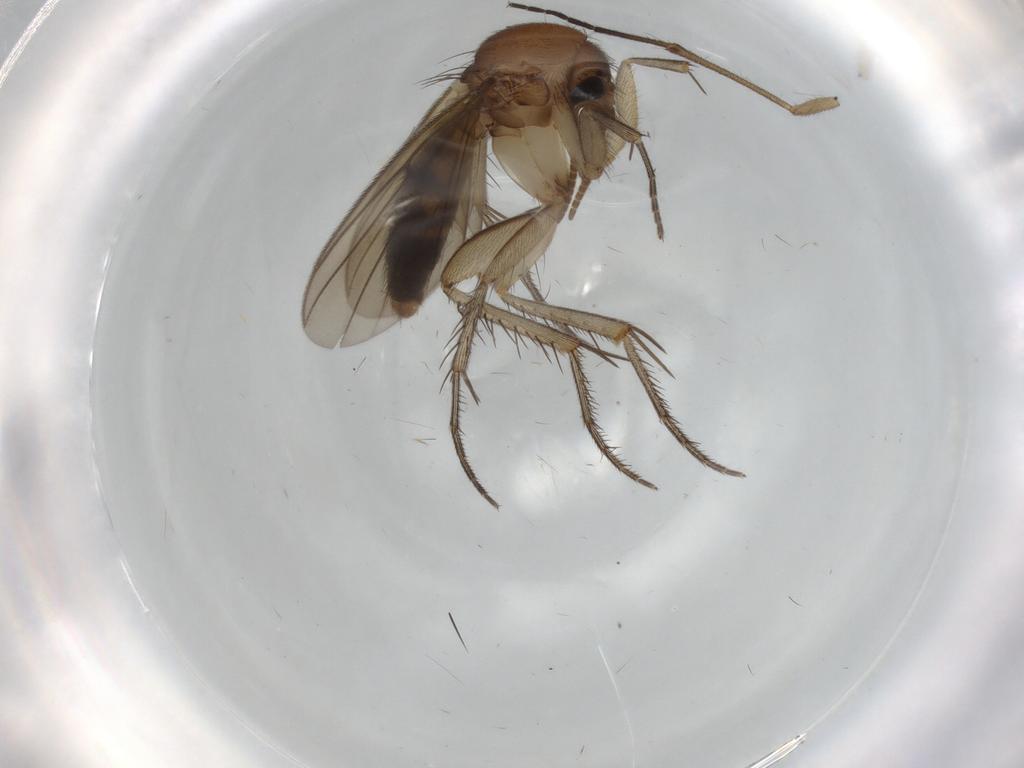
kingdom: Animalia
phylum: Arthropoda
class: Insecta
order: Diptera
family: Mycetophilidae
